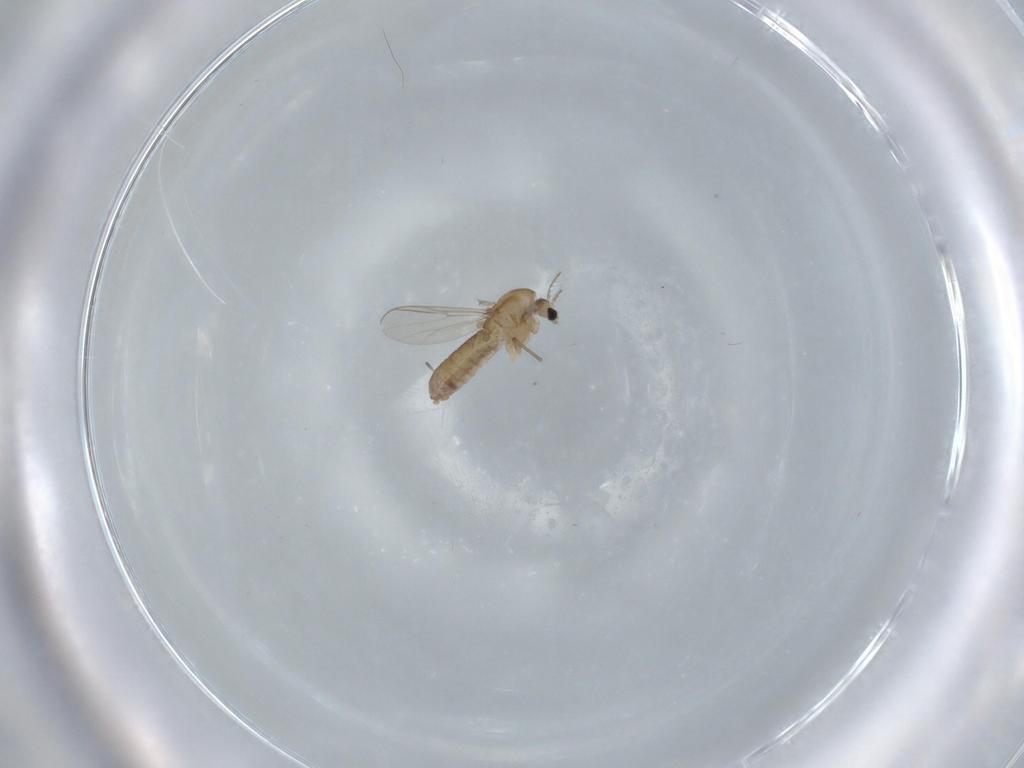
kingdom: Animalia
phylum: Arthropoda
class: Insecta
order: Diptera
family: Chironomidae
